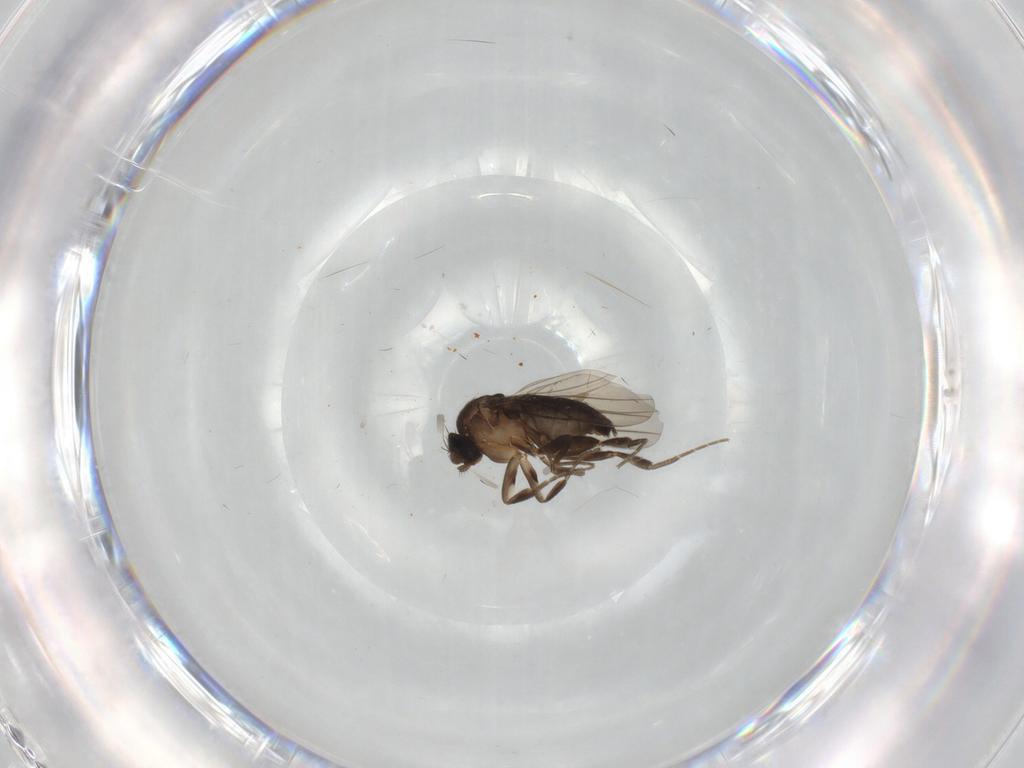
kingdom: Animalia
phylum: Arthropoda
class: Insecta
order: Diptera
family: Phoridae
